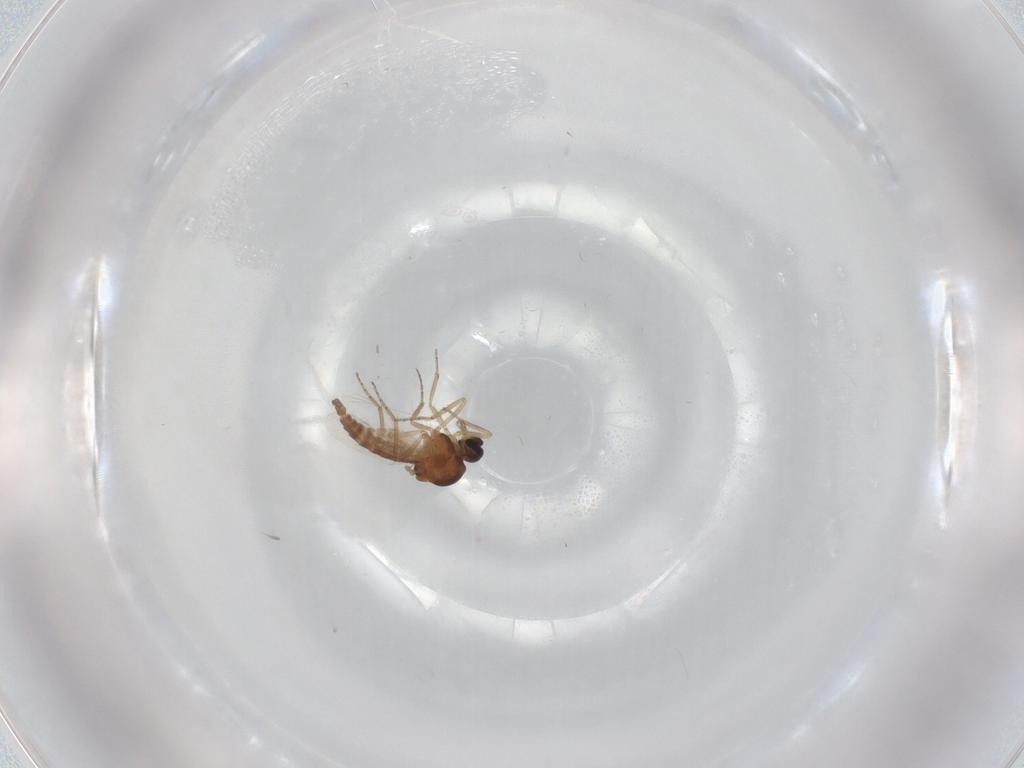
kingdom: Animalia
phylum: Arthropoda
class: Insecta
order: Diptera
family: Ceratopogonidae
